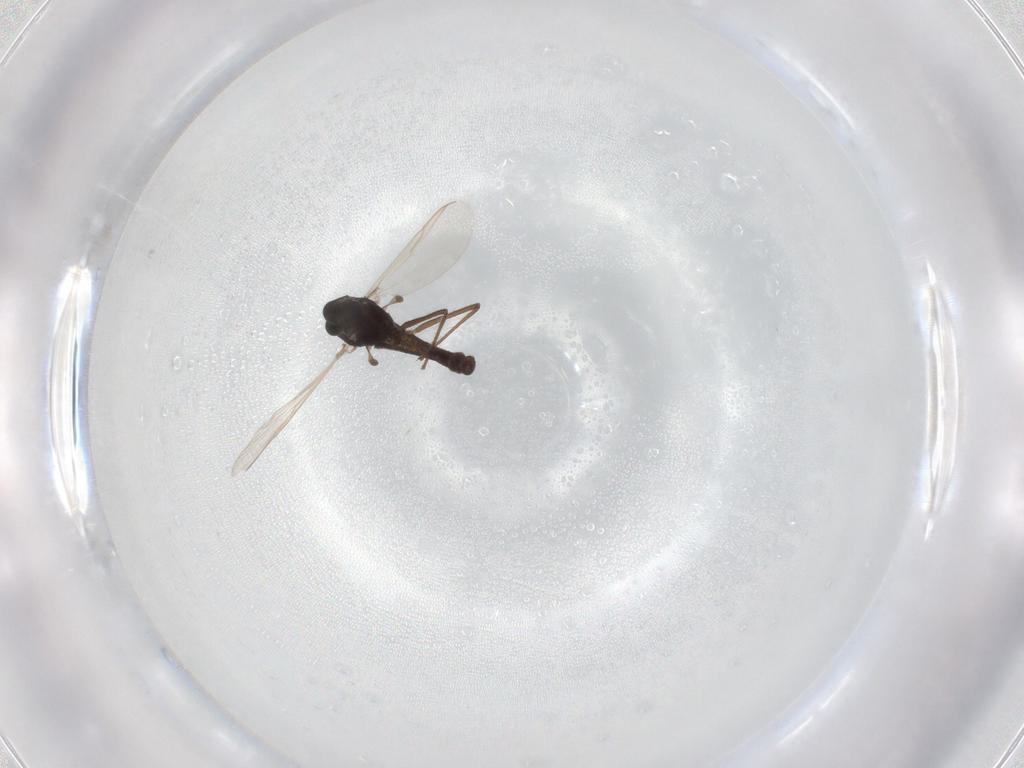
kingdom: Animalia
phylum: Arthropoda
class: Insecta
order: Diptera
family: Chironomidae
